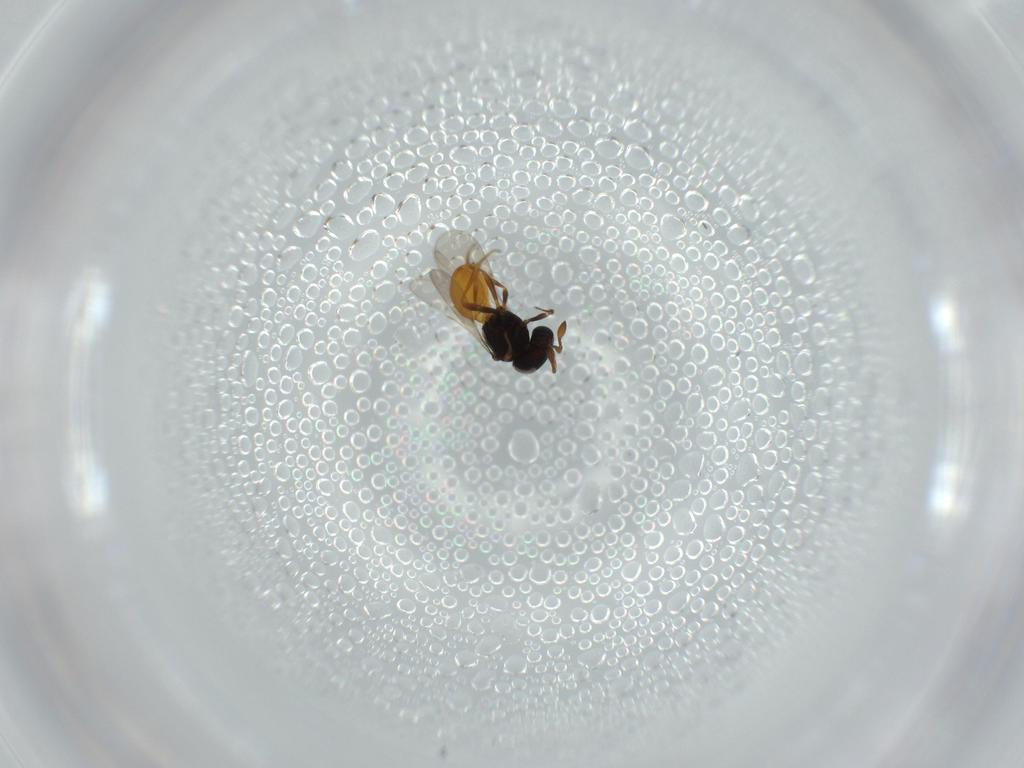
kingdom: Animalia
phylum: Arthropoda
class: Insecta
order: Hymenoptera
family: Scelionidae
